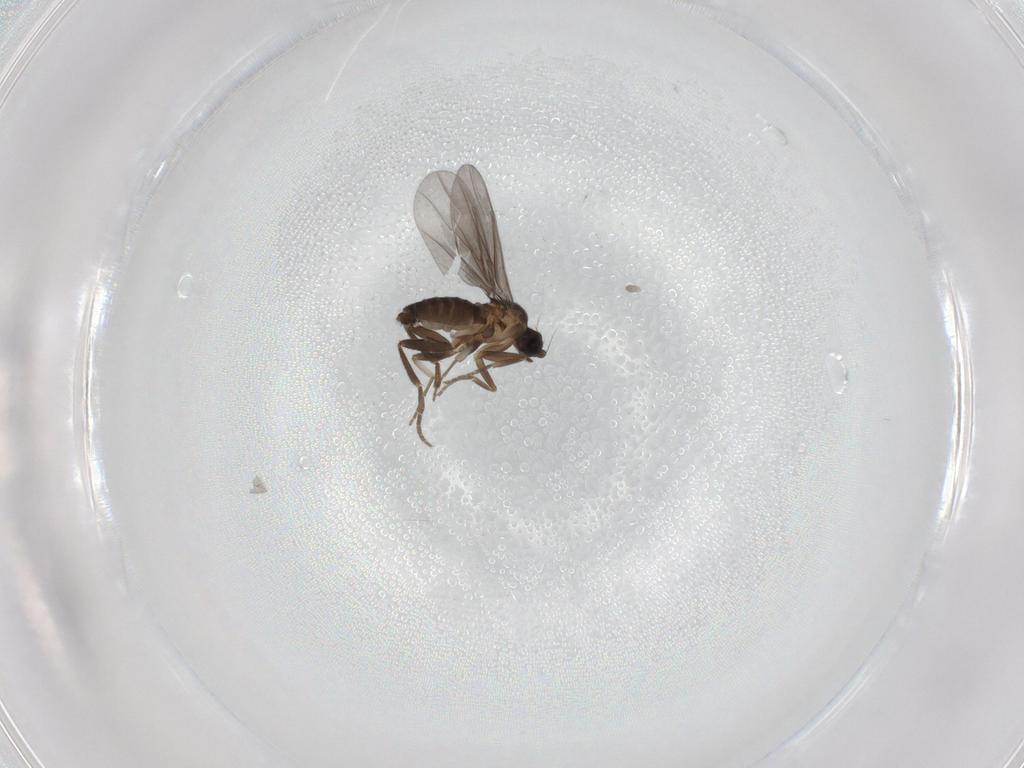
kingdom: Animalia
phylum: Arthropoda
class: Insecta
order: Diptera
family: Phoridae
